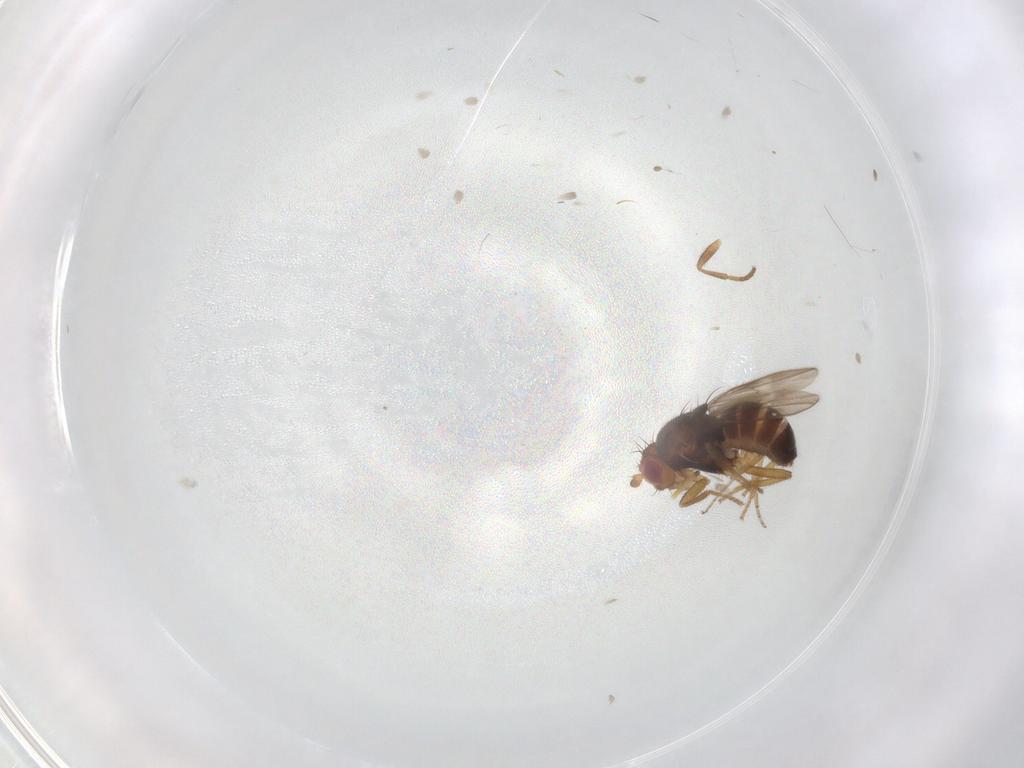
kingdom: Animalia
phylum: Arthropoda
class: Insecta
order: Diptera
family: Sphaeroceridae
